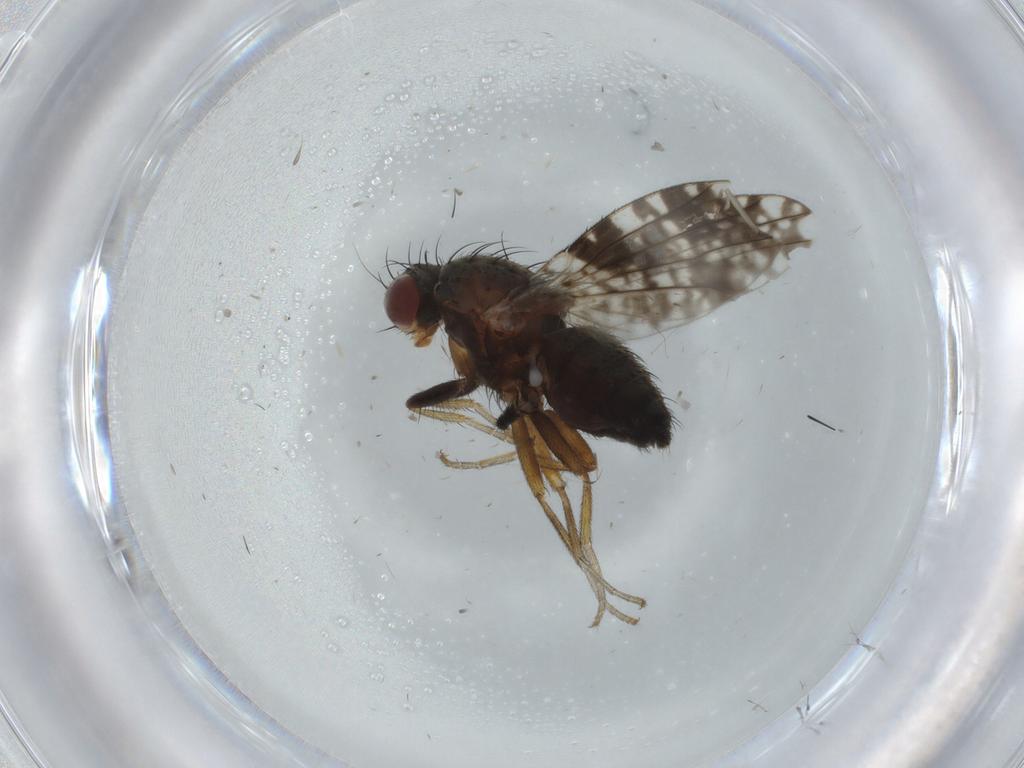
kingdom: Animalia
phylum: Arthropoda
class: Insecta
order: Diptera
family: Tephritidae
